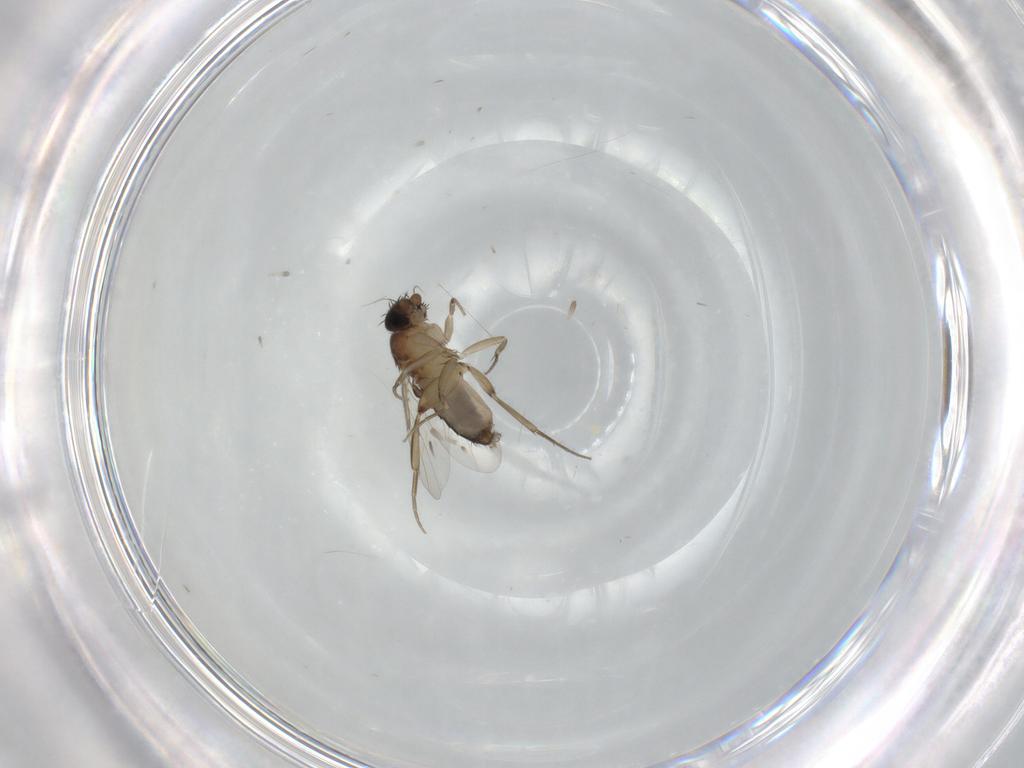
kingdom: Animalia
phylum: Arthropoda
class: Insecta
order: Diptera
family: Phoridae
